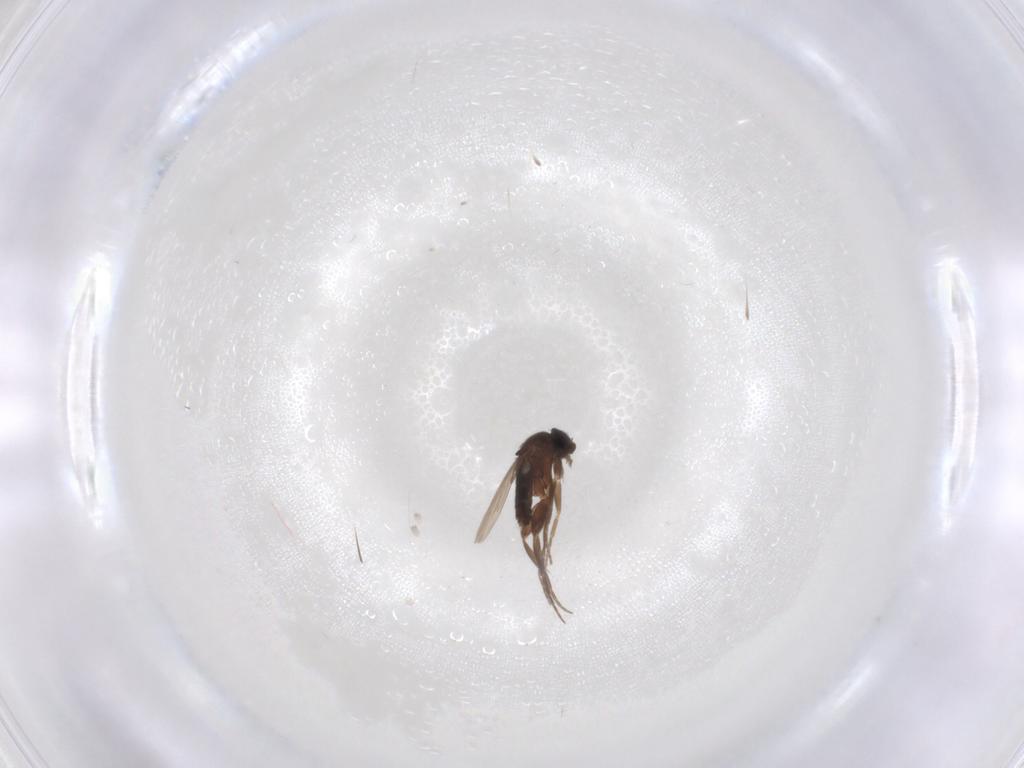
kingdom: Animalia
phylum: Arthropoda
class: Insecta
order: Diptera
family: Phoridae
